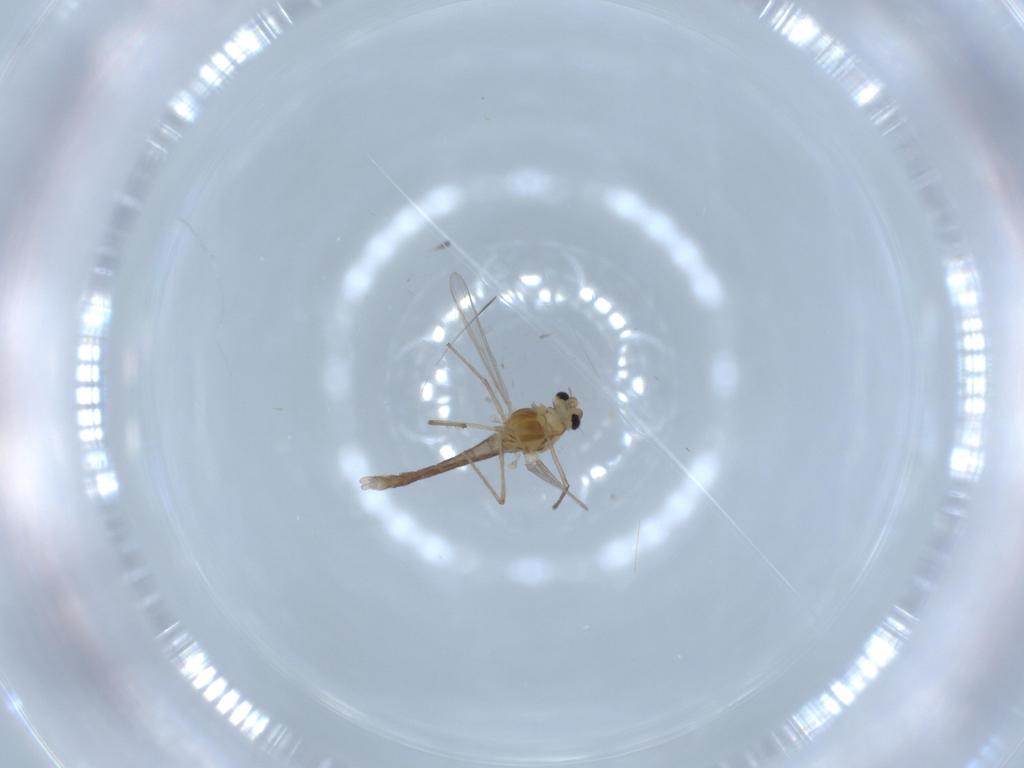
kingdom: Animalia
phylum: Arthropoda
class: Insecta
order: Diptera
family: Chironomidae
